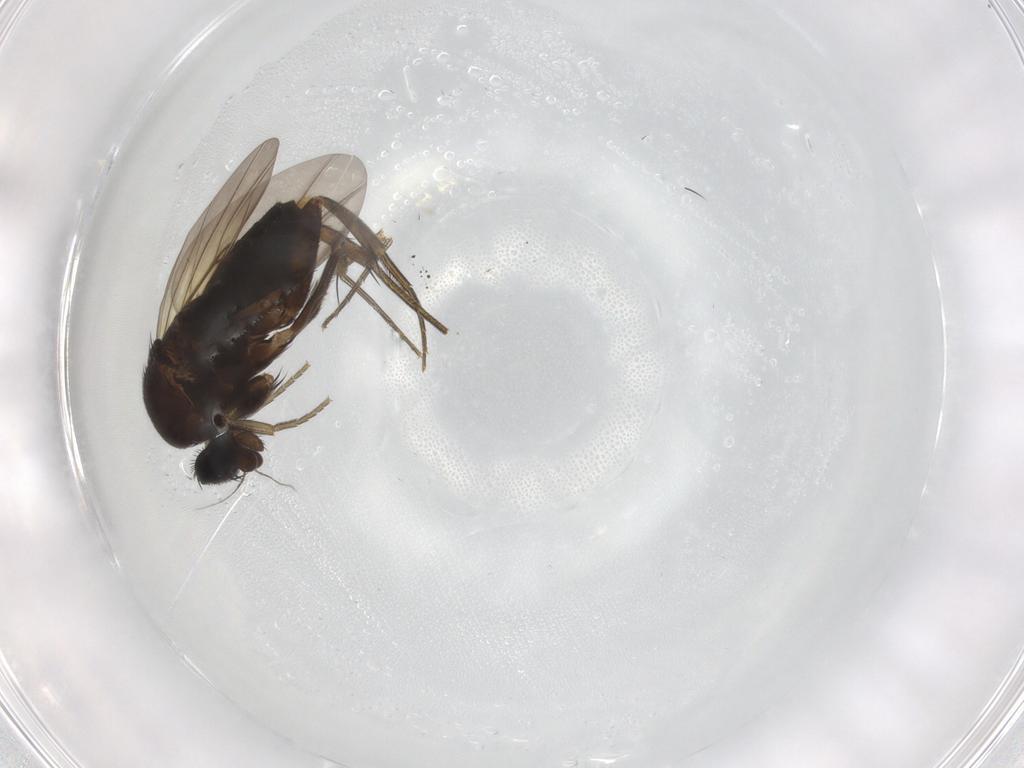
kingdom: Animalia
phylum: Arthropoda
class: Insecta
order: Diptera
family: Phoridae
